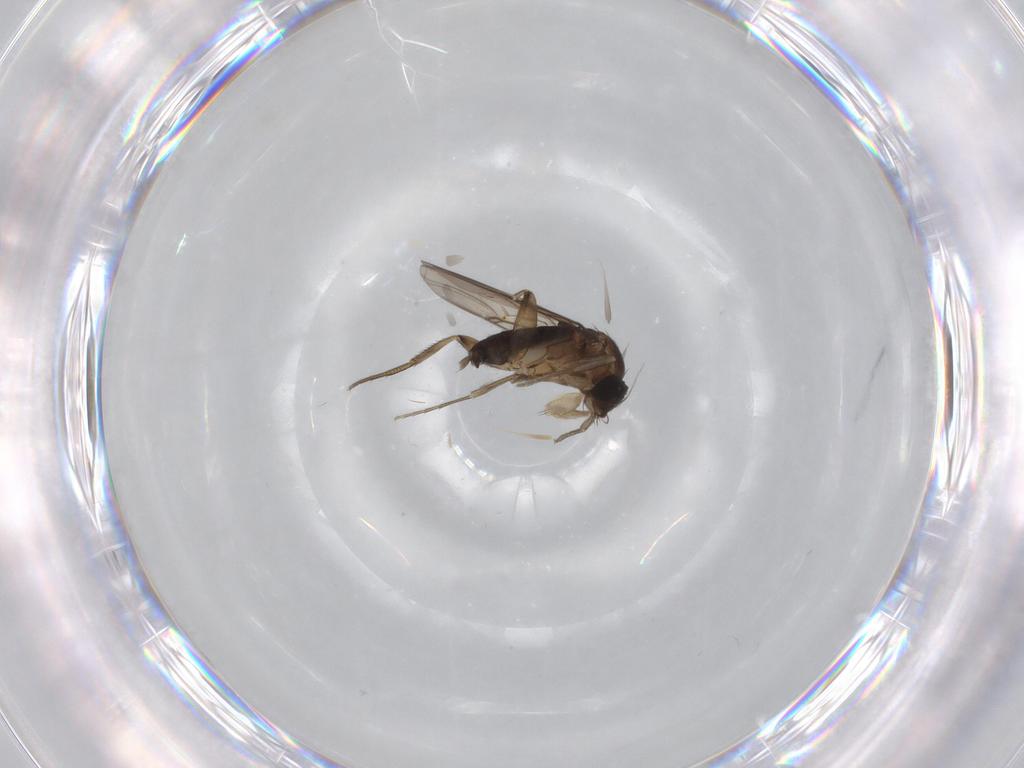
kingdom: Animalia
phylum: Arthropoda
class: Insecta
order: Diptera
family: Phoridae
